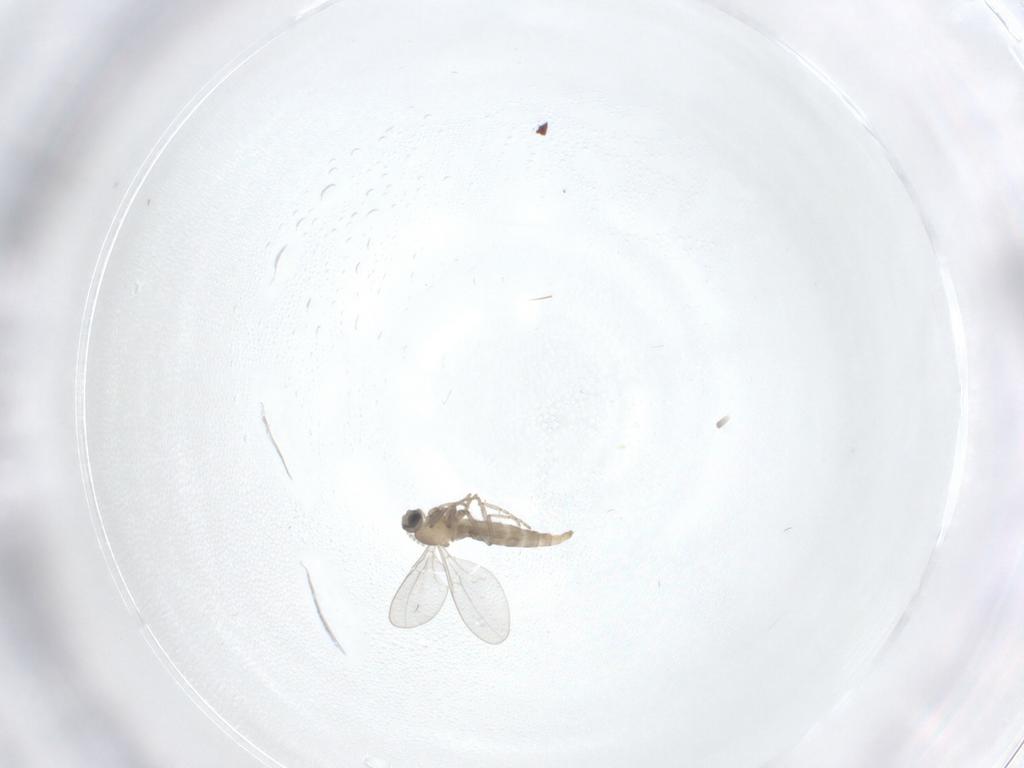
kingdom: Animalia
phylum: Arthropoda
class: Insecta
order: Diptera
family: Cecidomyiidae
